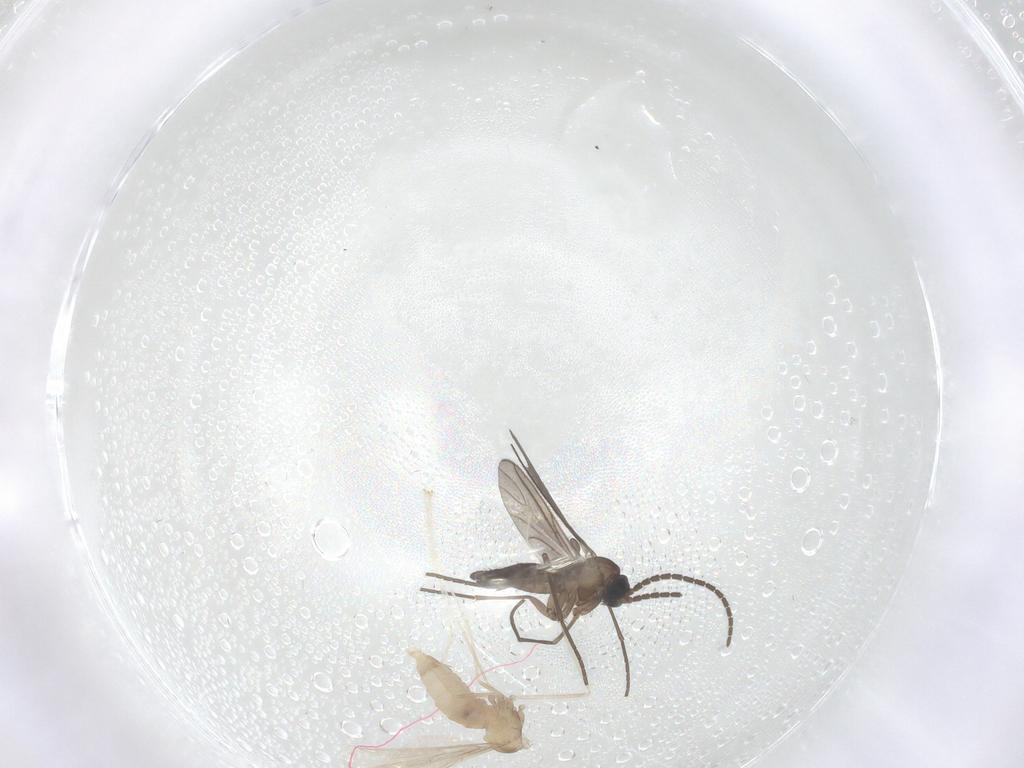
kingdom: Animalia
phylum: Arthropoda
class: Insecta
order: Diptera
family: Sciaridae
